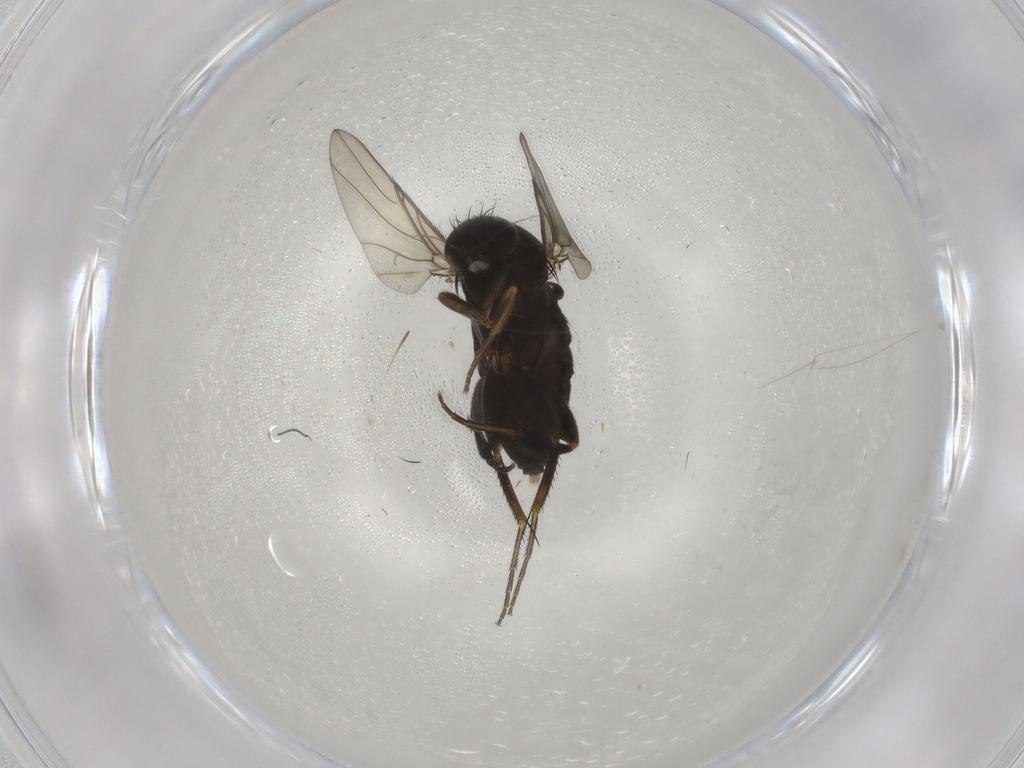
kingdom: Animalia
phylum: Arthropoda
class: Insecta
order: Diptera
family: Phoridae
